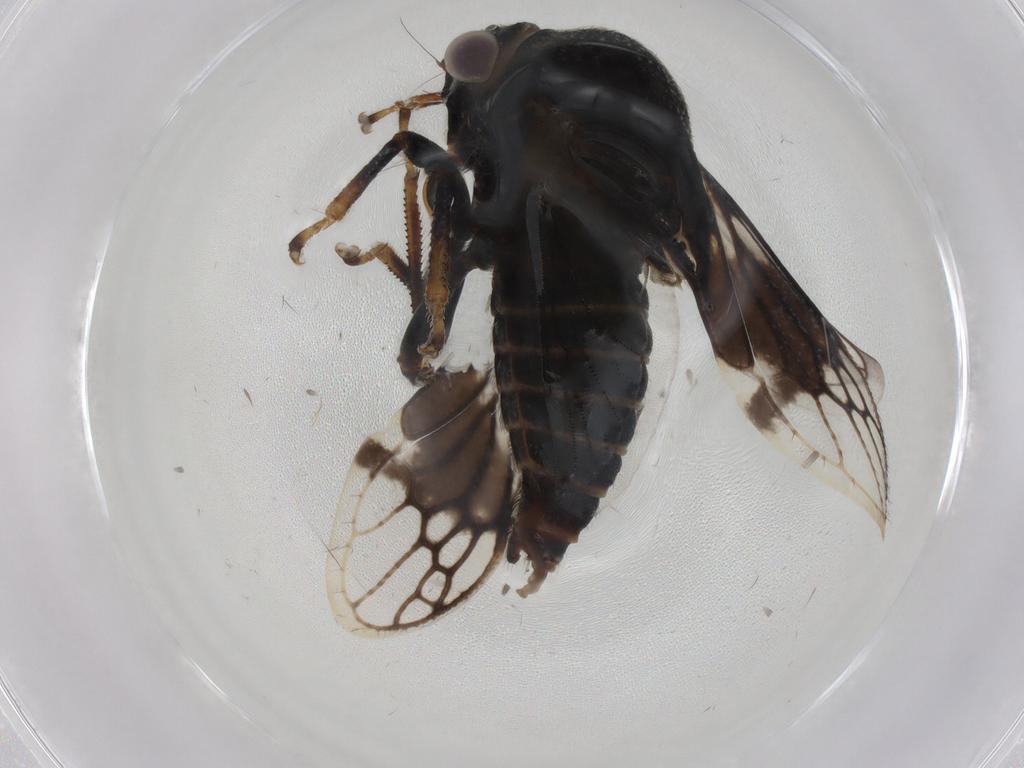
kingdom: Animalia
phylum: Arthropoda
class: Insecta
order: Hemiptera
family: Membracidae
